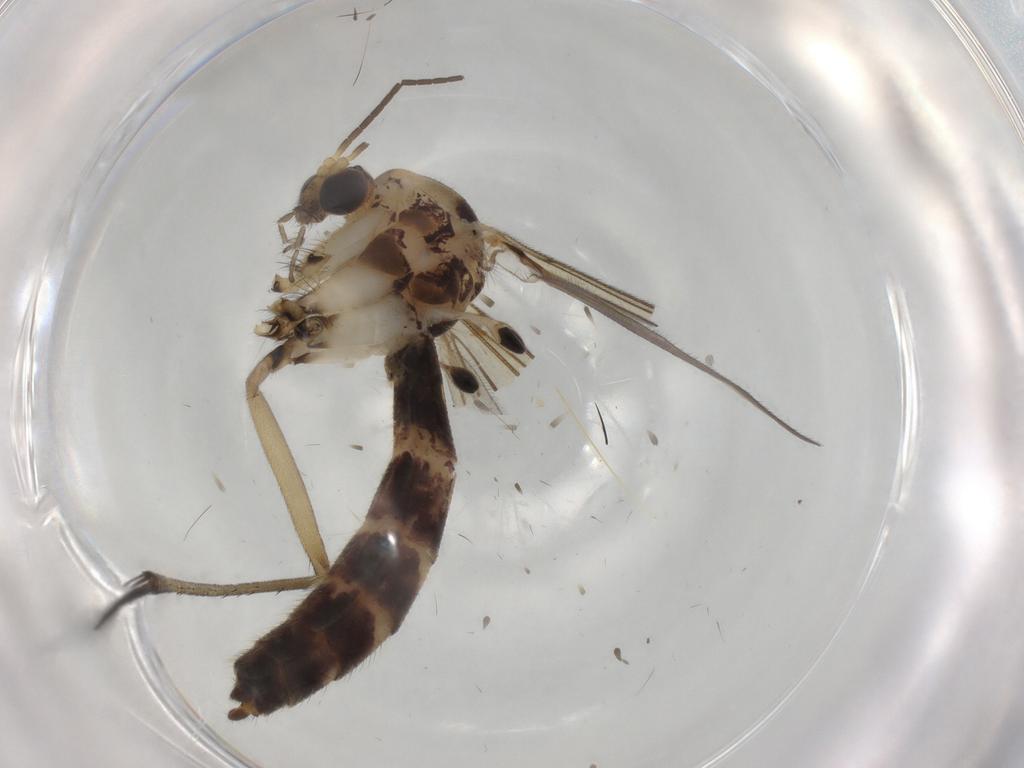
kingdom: Animalia
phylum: Arthropoda
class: Insecta
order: Diptera
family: Mycetophilidae
